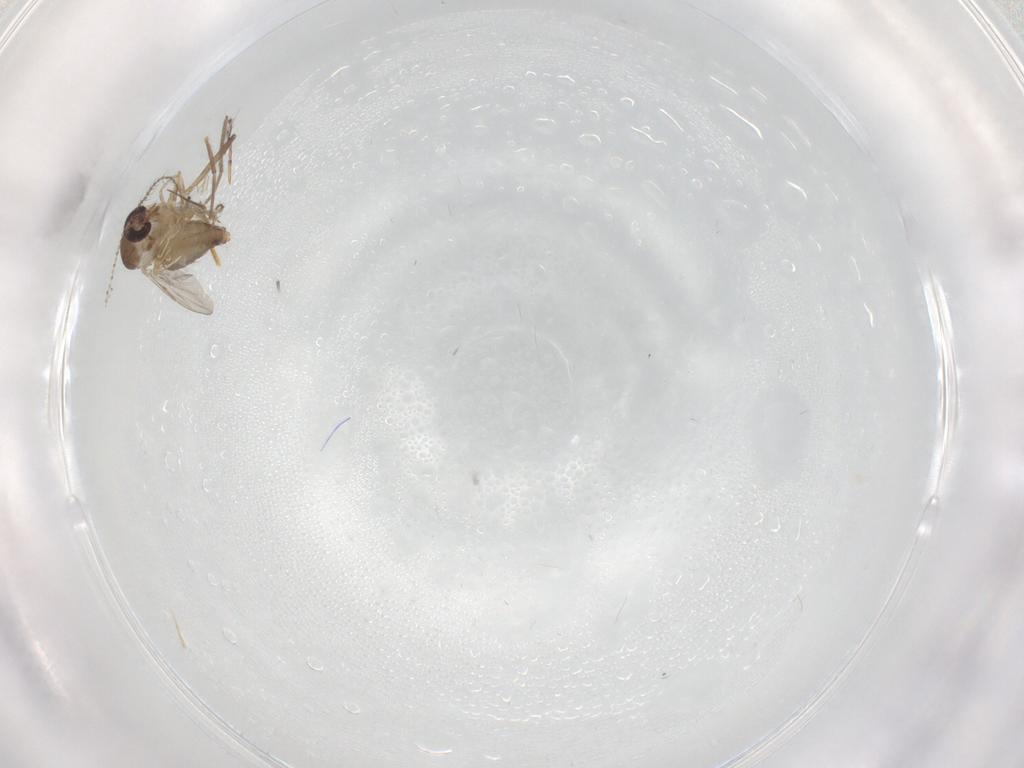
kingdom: Animalia
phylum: Arthropoda
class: Insecta
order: Diptera
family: Ceratopogonidae
